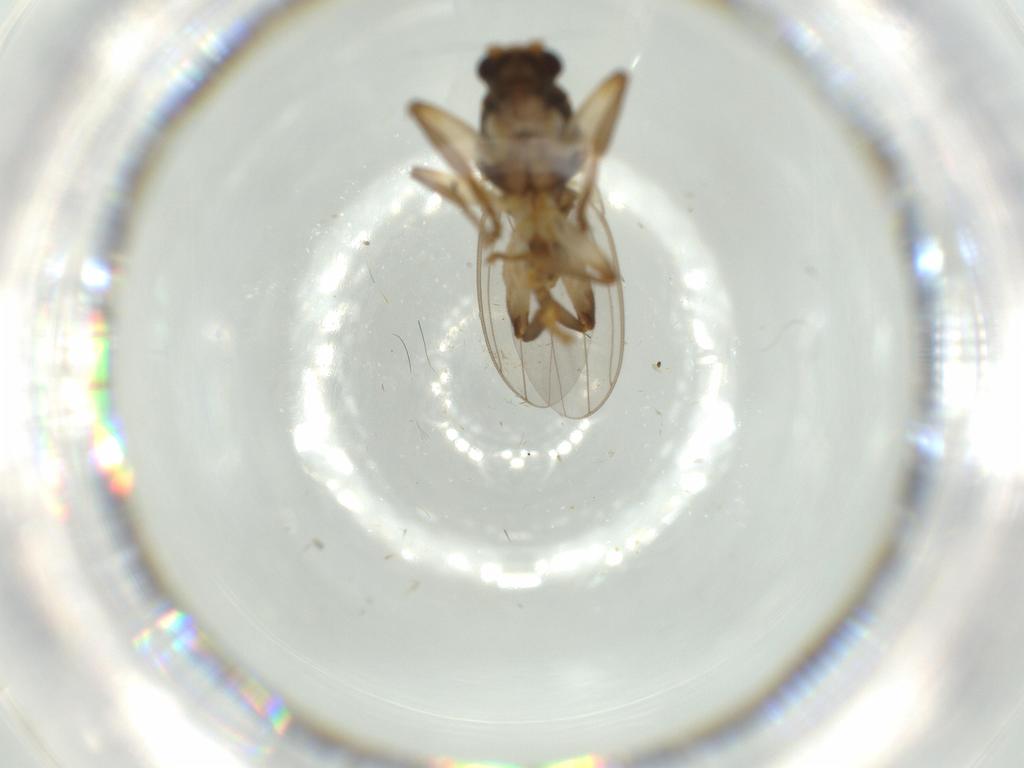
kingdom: Animalia
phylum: Arthropoda
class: Insecta
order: Diptera
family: Sphaeroceridae
